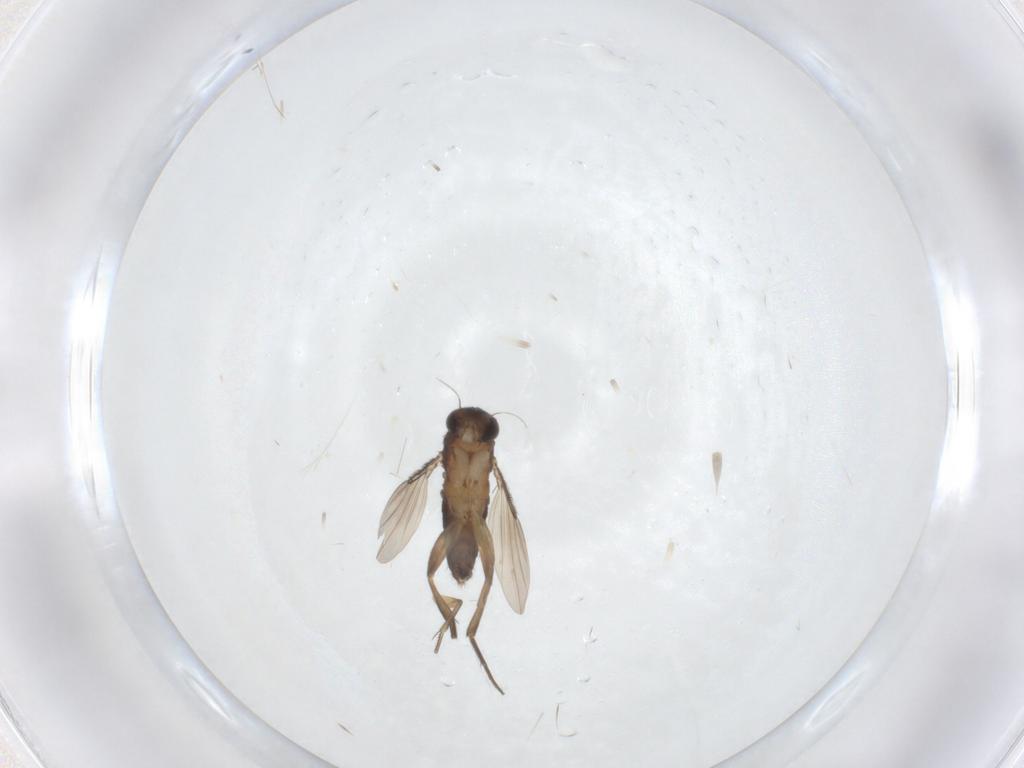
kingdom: Animalia
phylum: Arthropoda
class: Insecta
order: Diptera
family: Phoridae
